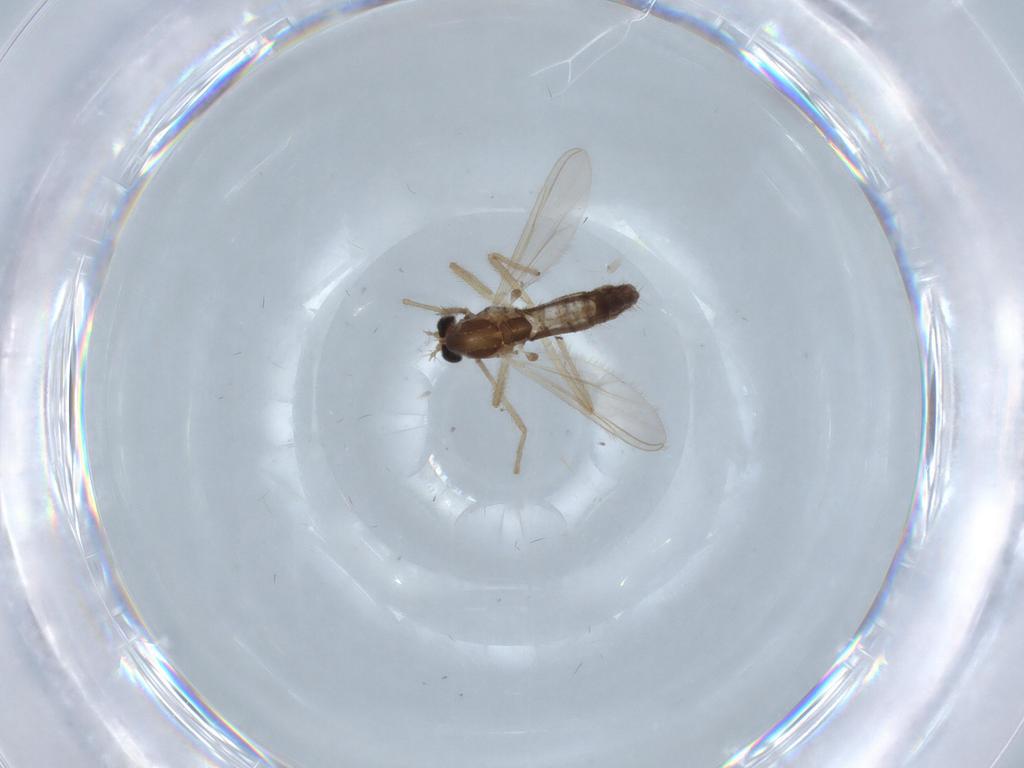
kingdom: Animalia
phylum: Arthropoda
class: Insecta
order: Diptera
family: Chironomidae
